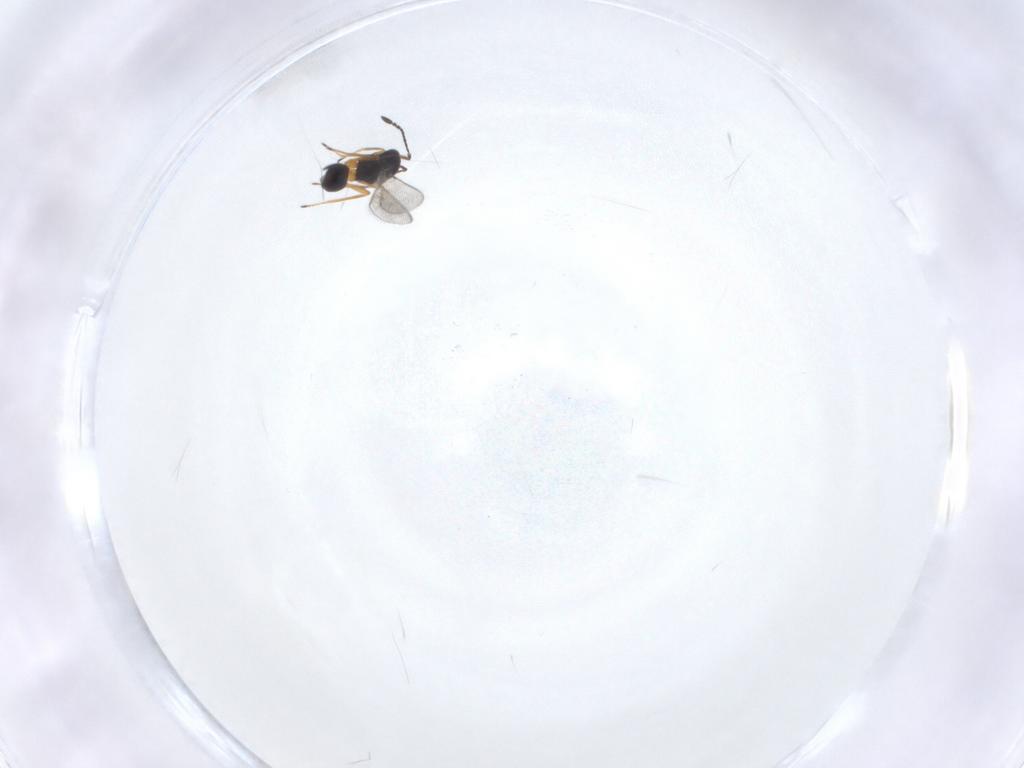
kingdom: Animalia
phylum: Arthropoda
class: Insecta
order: Hymenoptera
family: Mymaridae
